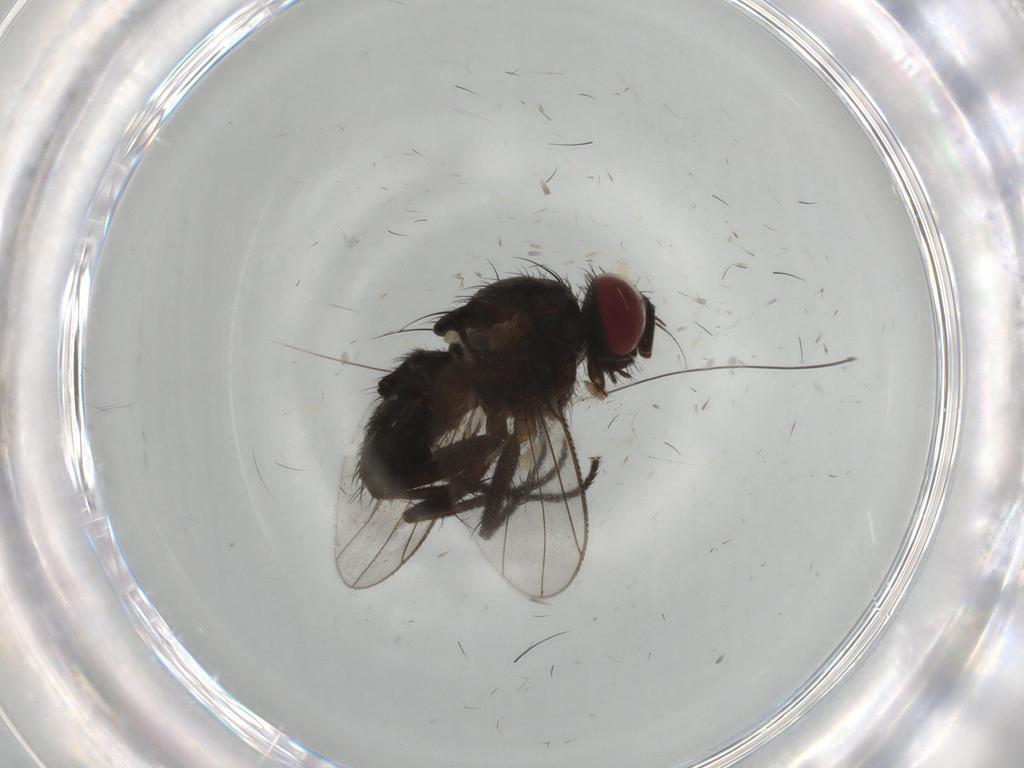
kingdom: Animalia
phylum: Arthropoda
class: Insecta
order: Diptera
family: Muscidae
